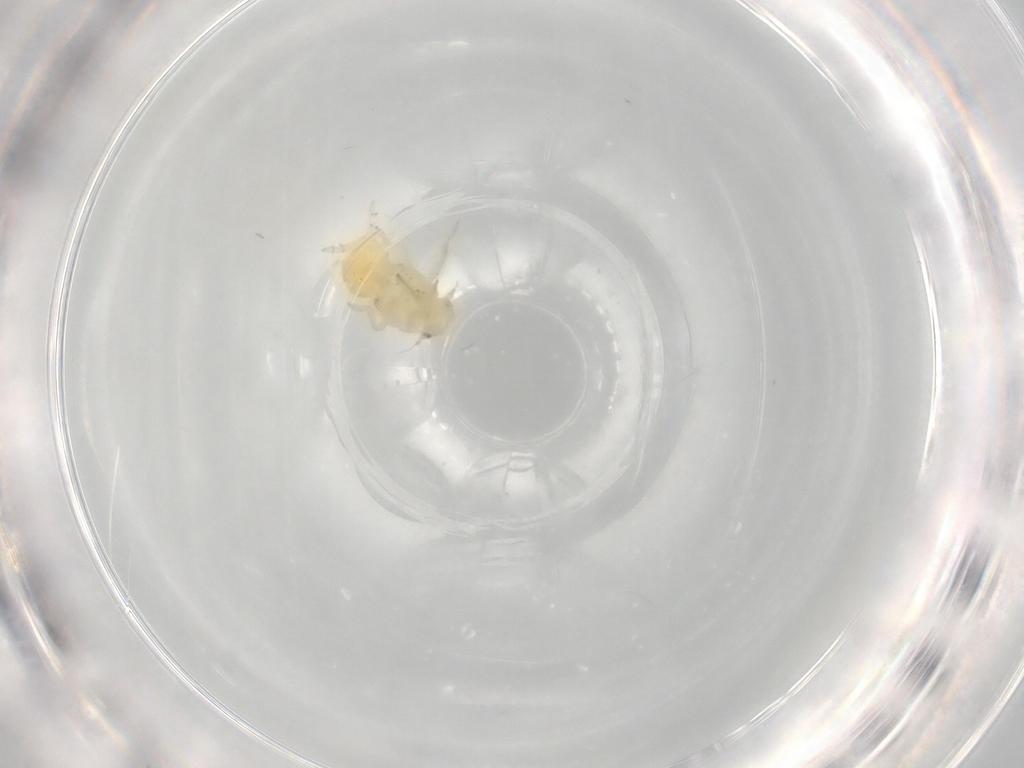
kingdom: Animalia
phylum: Arthropoda
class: Insecta
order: Hemiptera
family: Flatidae
